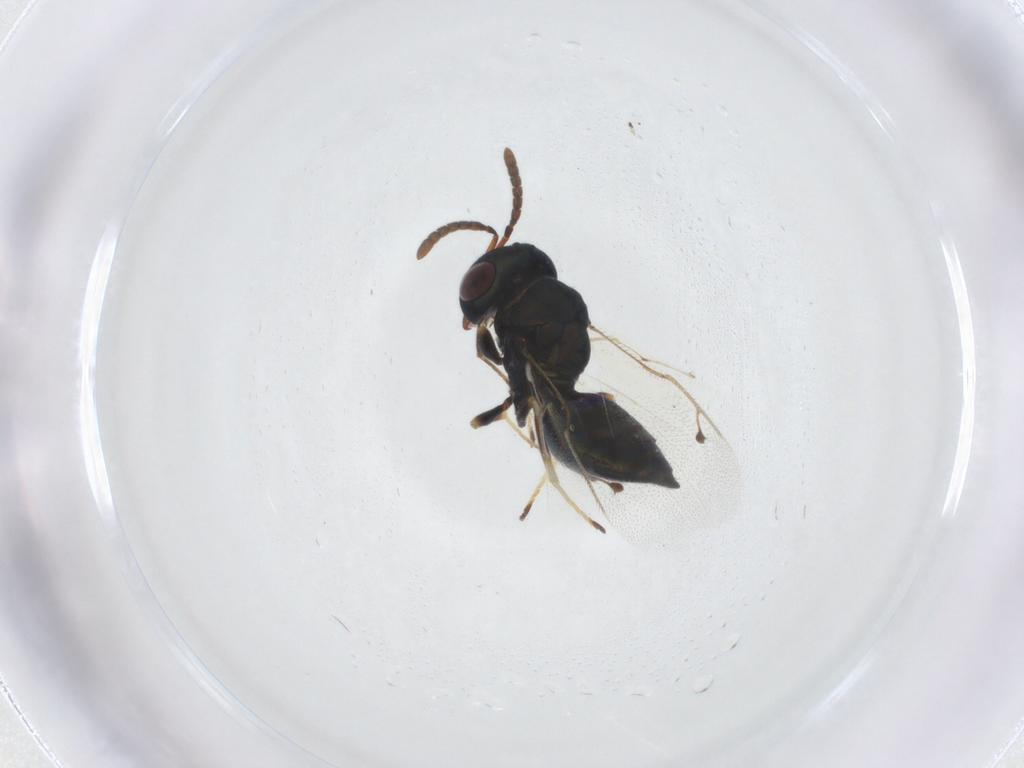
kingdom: Animalia
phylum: Arthropoda
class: Insecta
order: Hymenoptera
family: Pteromalidae
